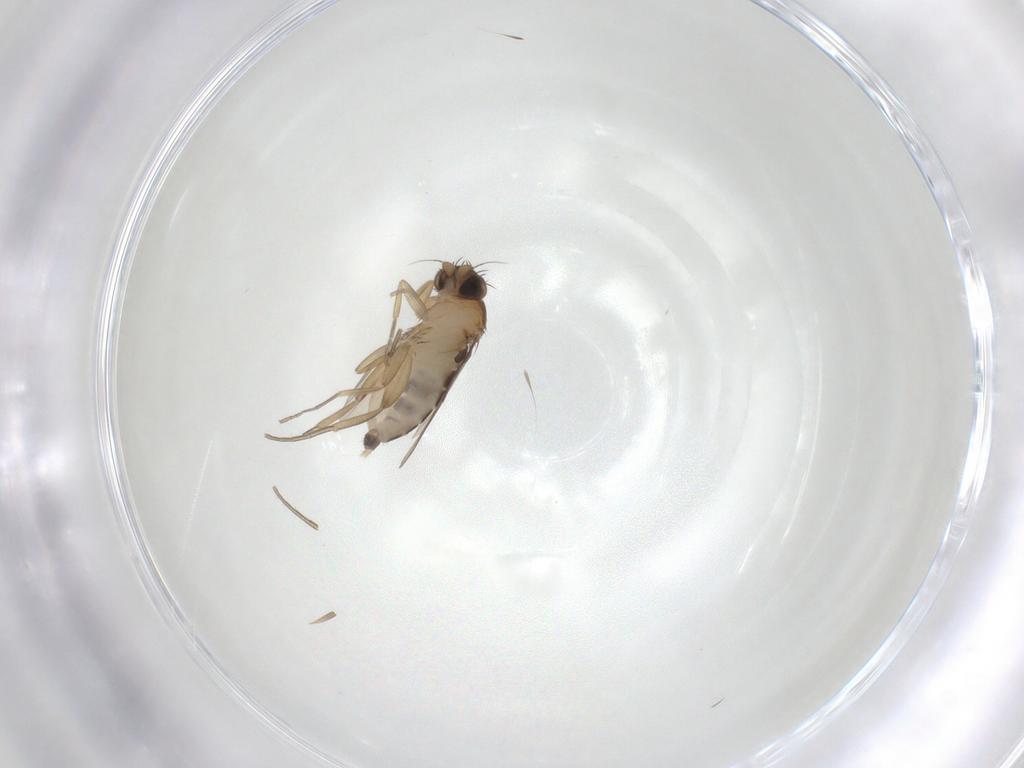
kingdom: Animalia
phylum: Arthropoda
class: Insecta
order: Diptera
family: Phoridae
